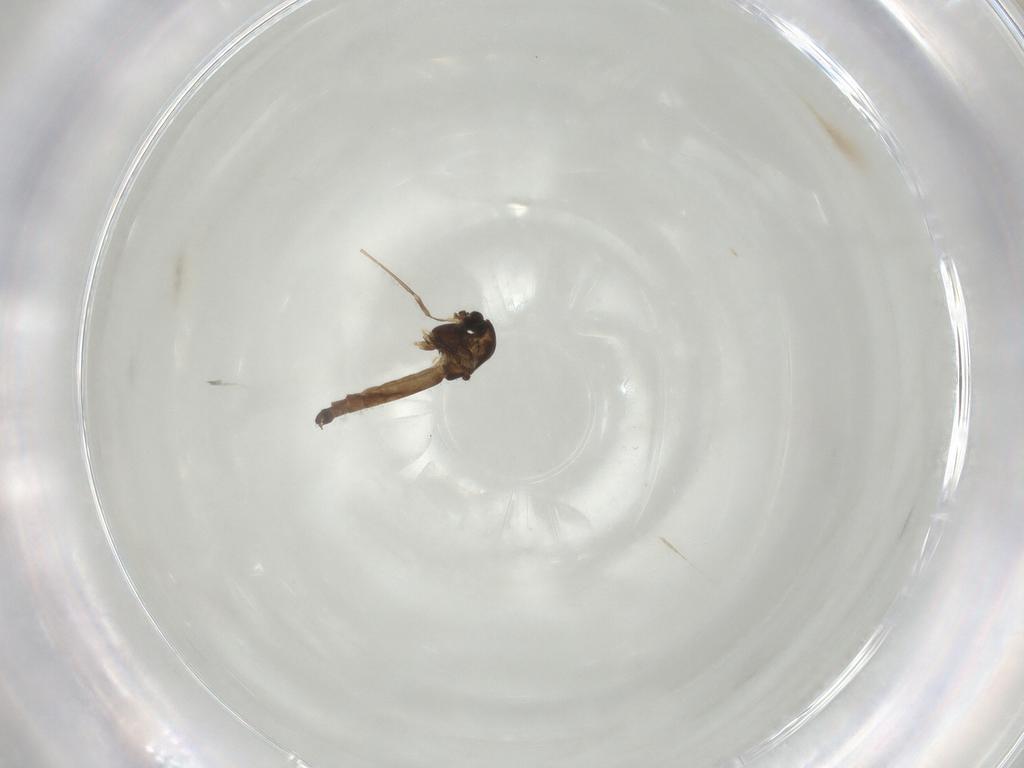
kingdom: Animalia
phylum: Arthropoda
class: Insecta
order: Diptera
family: Chironomidae
